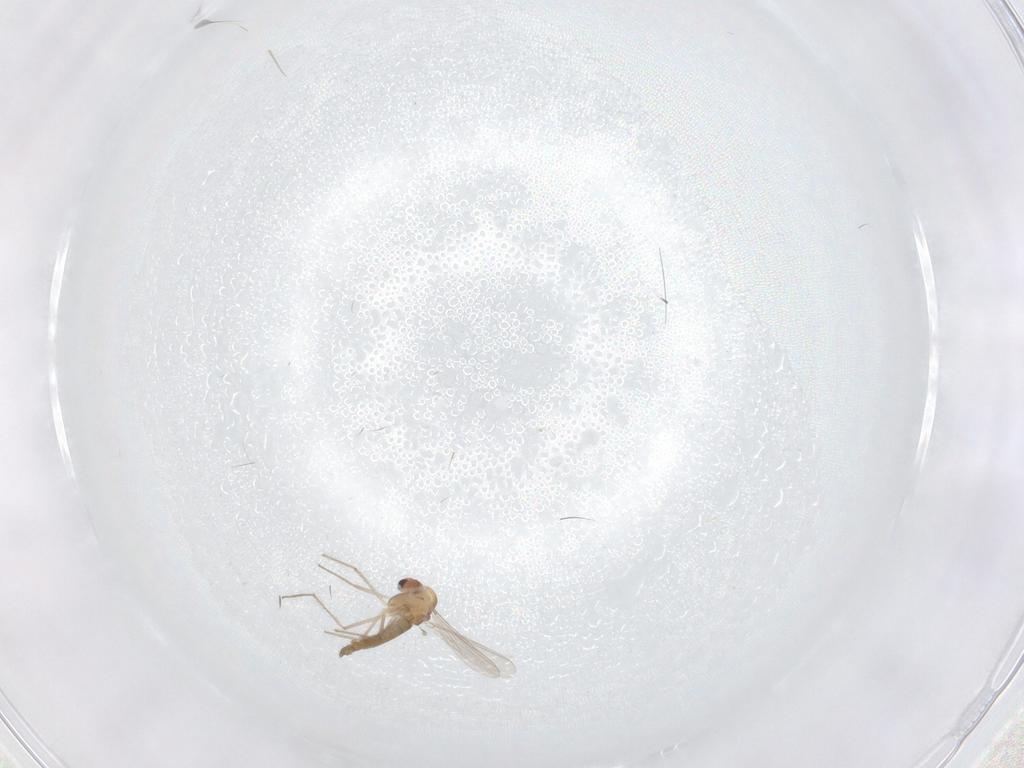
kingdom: Animalia
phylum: Arthropoda
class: Insecta
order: Diptera
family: Chironomidae
